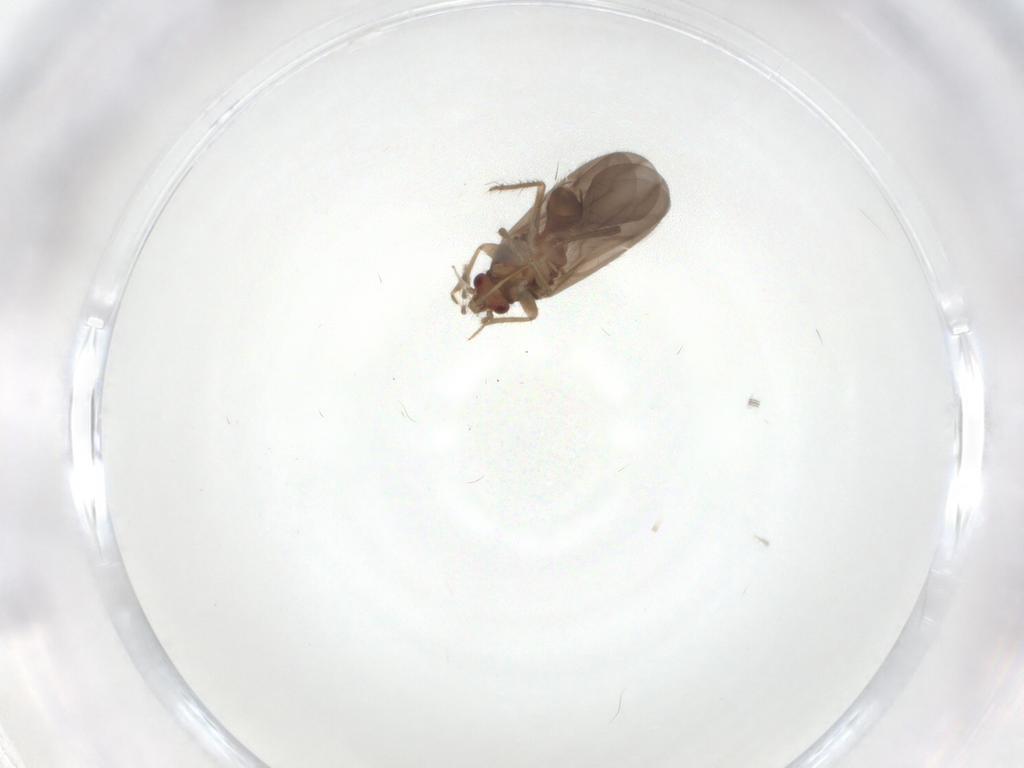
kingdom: Animalia
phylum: Arthropoda
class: Insecta
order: Hemiptera
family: Ceratocombidae
